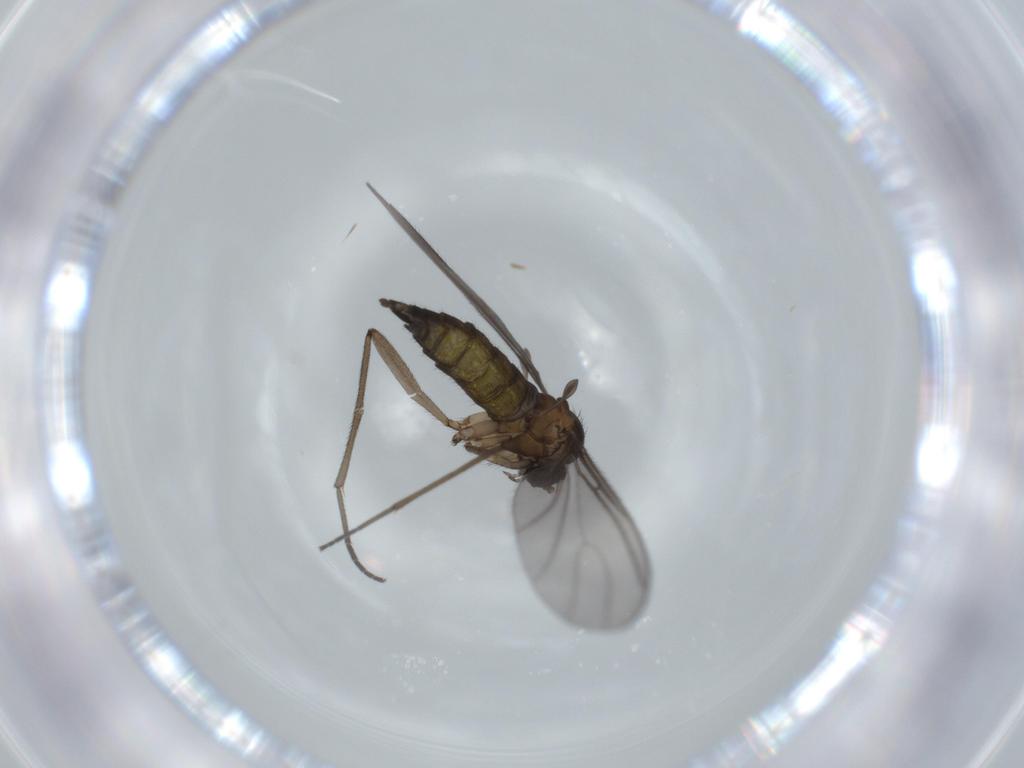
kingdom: Animalia
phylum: Arthropoda
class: Insecta
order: Diptera
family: Sciaridae
